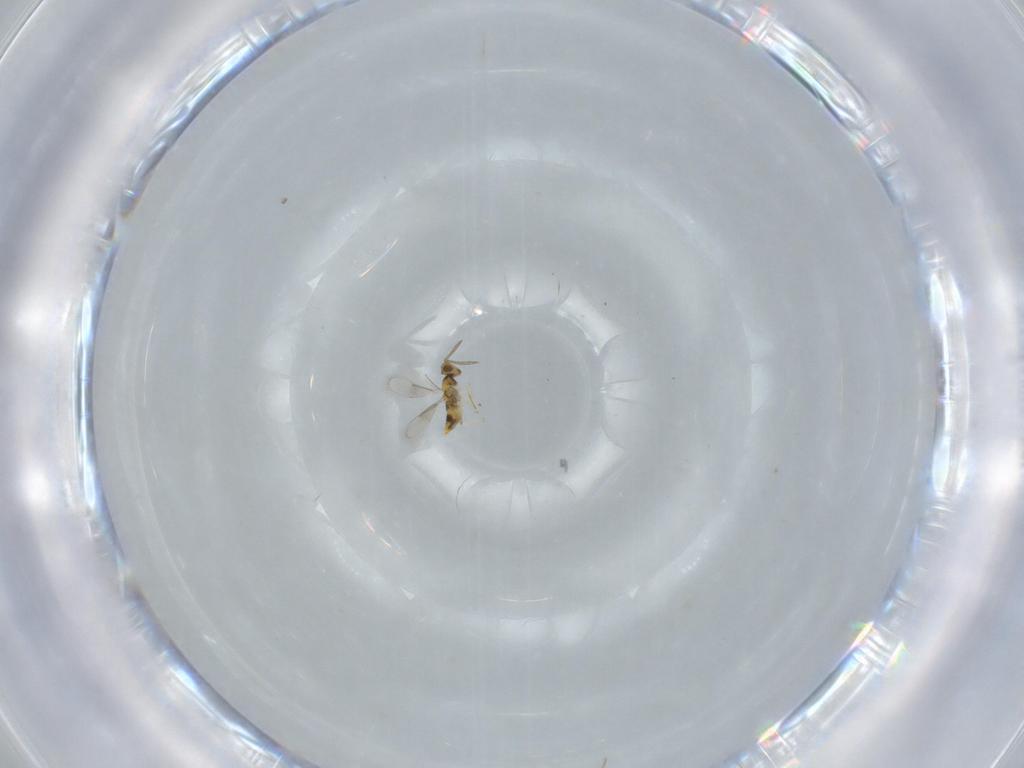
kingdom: Animalia
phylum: Arthropoda
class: Insecta
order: Hymenoptera
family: Aphelinidae
